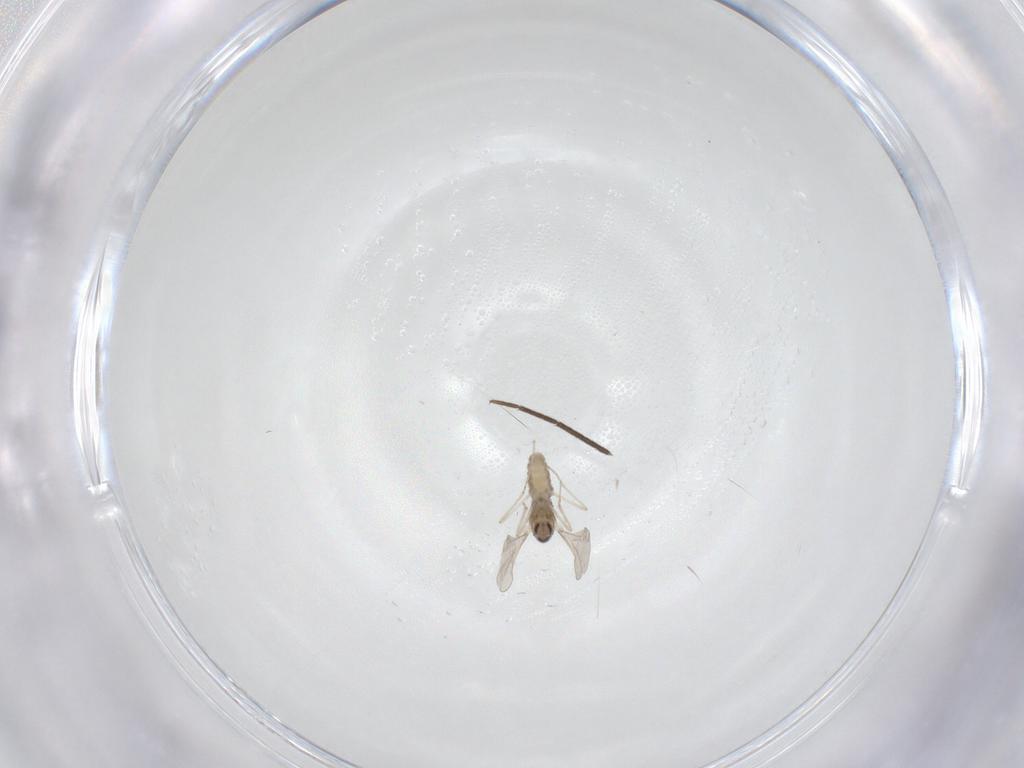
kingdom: Animalia
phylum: Arthropoda
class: Insecta
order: Diptera
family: Cecidomyiidae
